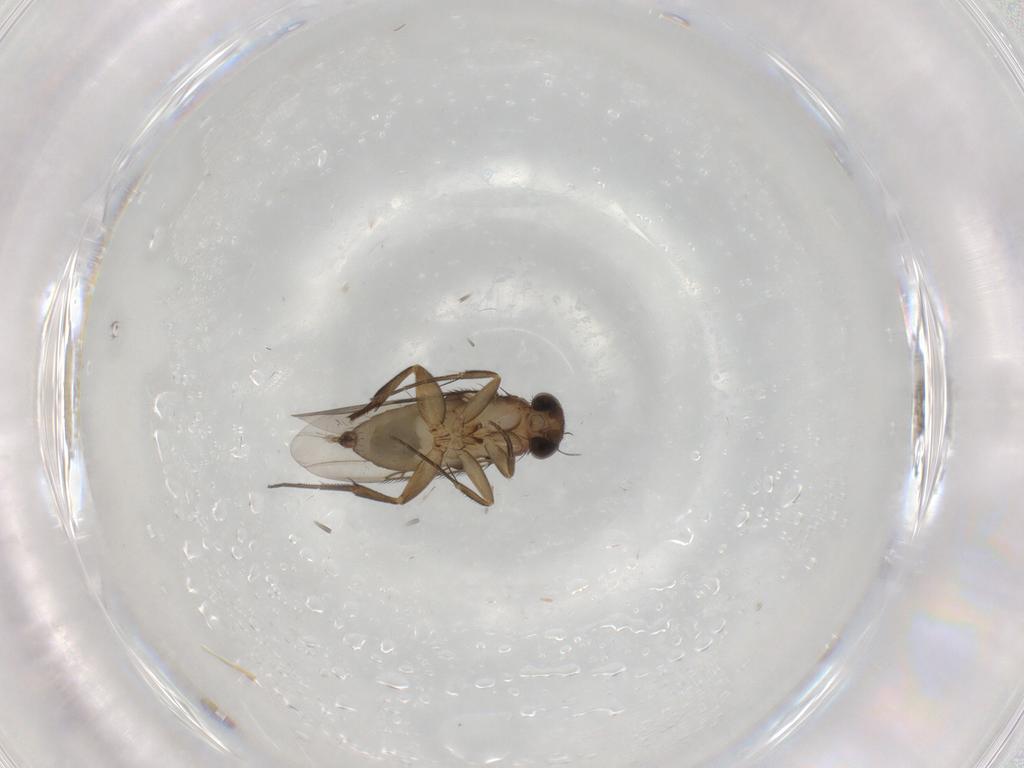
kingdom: Animalia
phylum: Arthropoda
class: Insecta
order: Diptera
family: Phoridae
